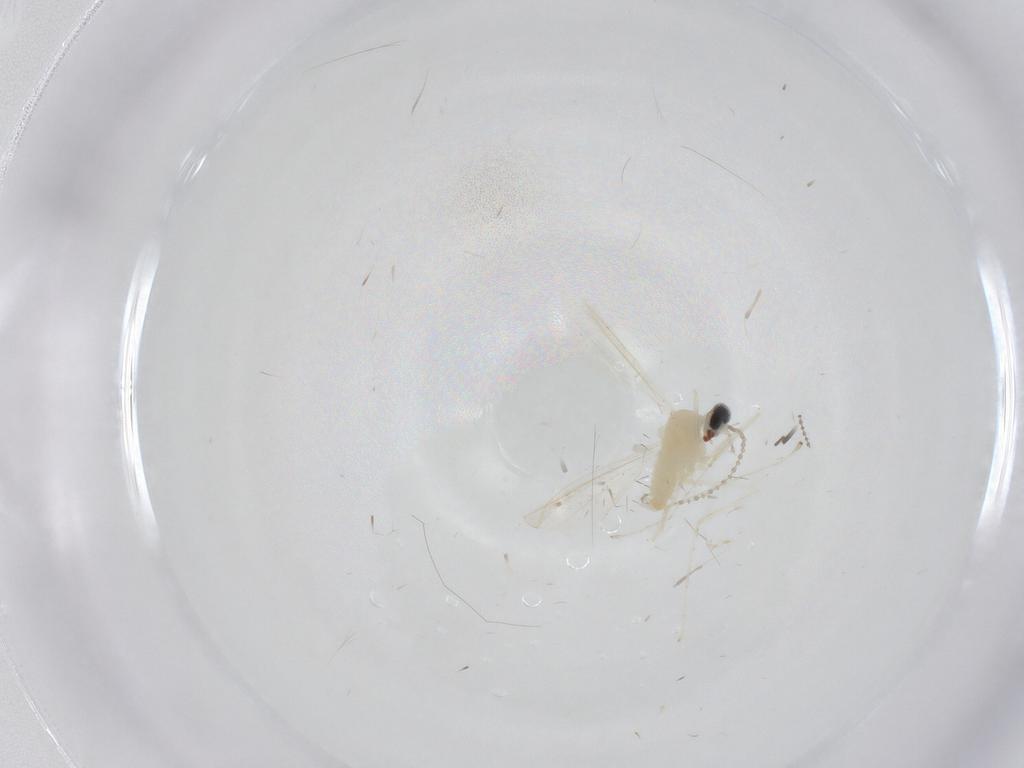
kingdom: Animalia
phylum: Arthropoda
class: Insecta
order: Diptera
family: Cecidomyiidae
